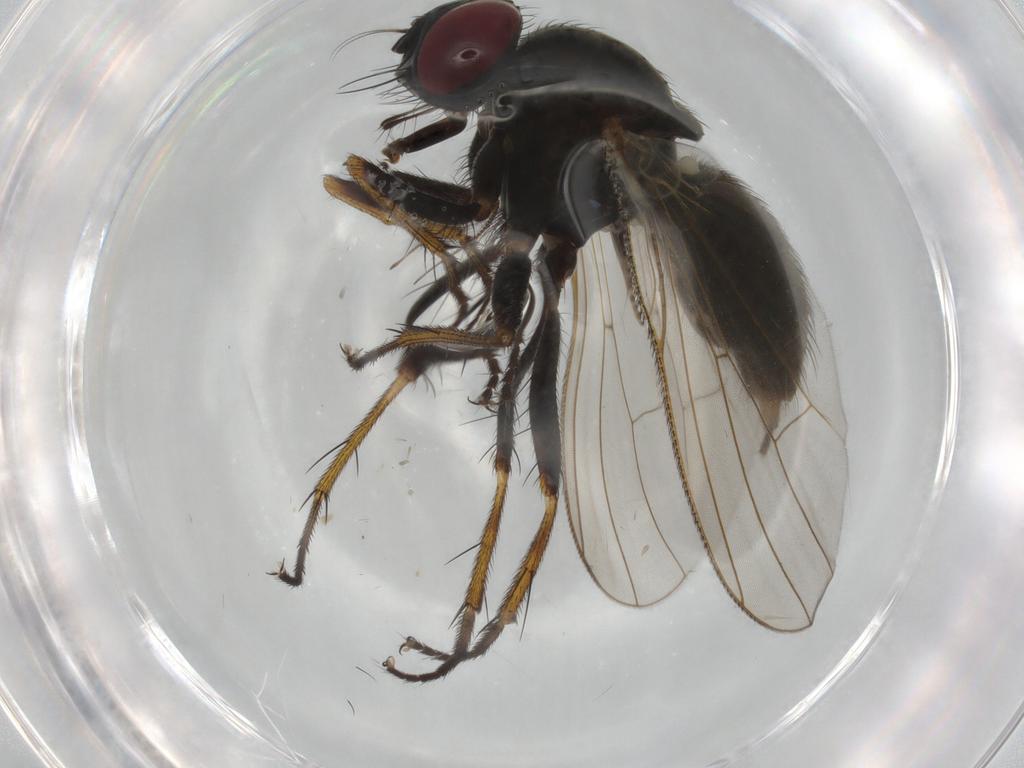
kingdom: Animalia
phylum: Arthropoda
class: Insecta
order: Diptera
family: Muscidae
